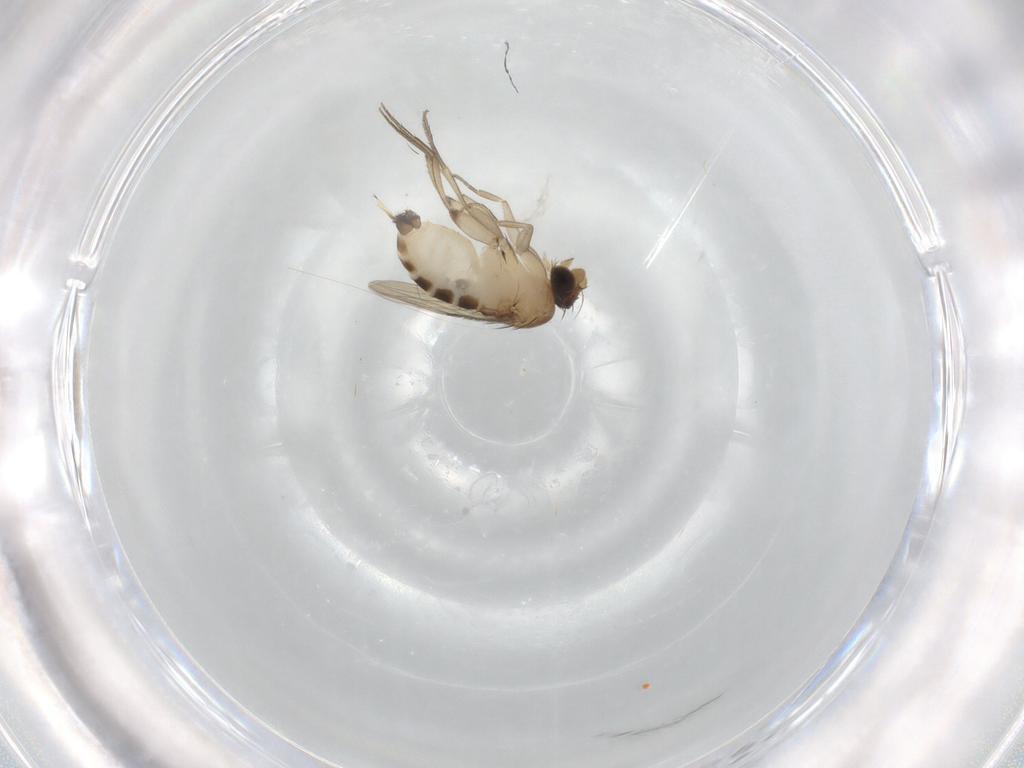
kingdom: Animalia
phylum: Arthropoda
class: Insecta
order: Diptera
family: Phoridae
